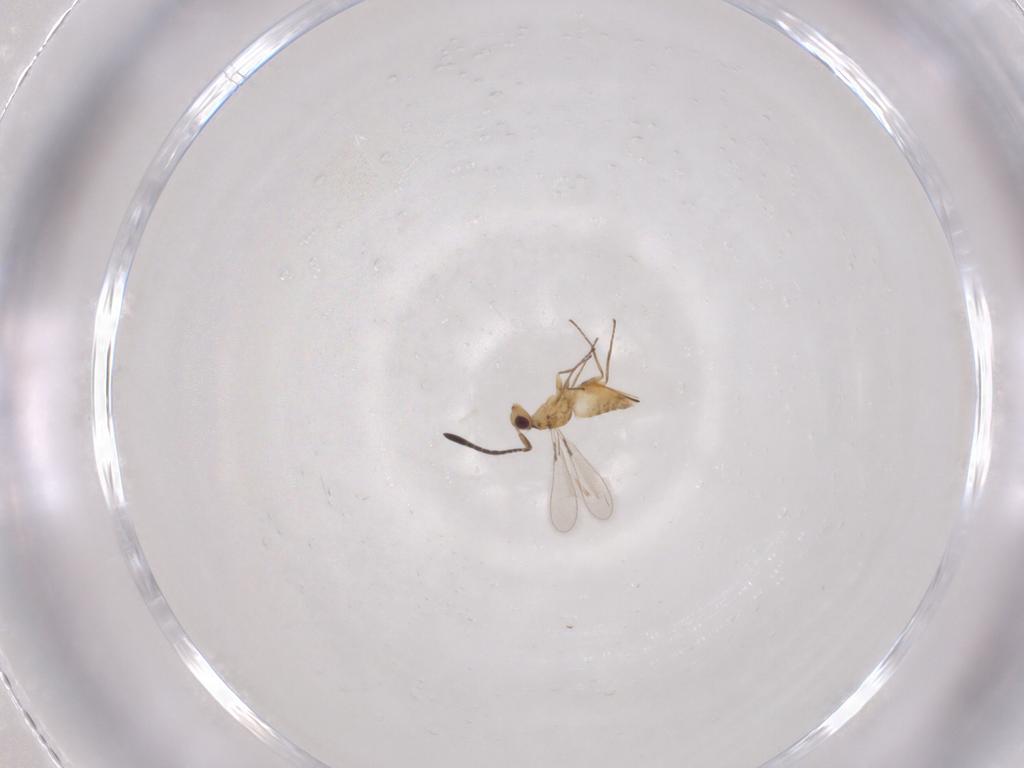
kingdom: Animalia
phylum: Arthropoda
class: Insecta
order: Hymenoptera
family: Mymaridae
